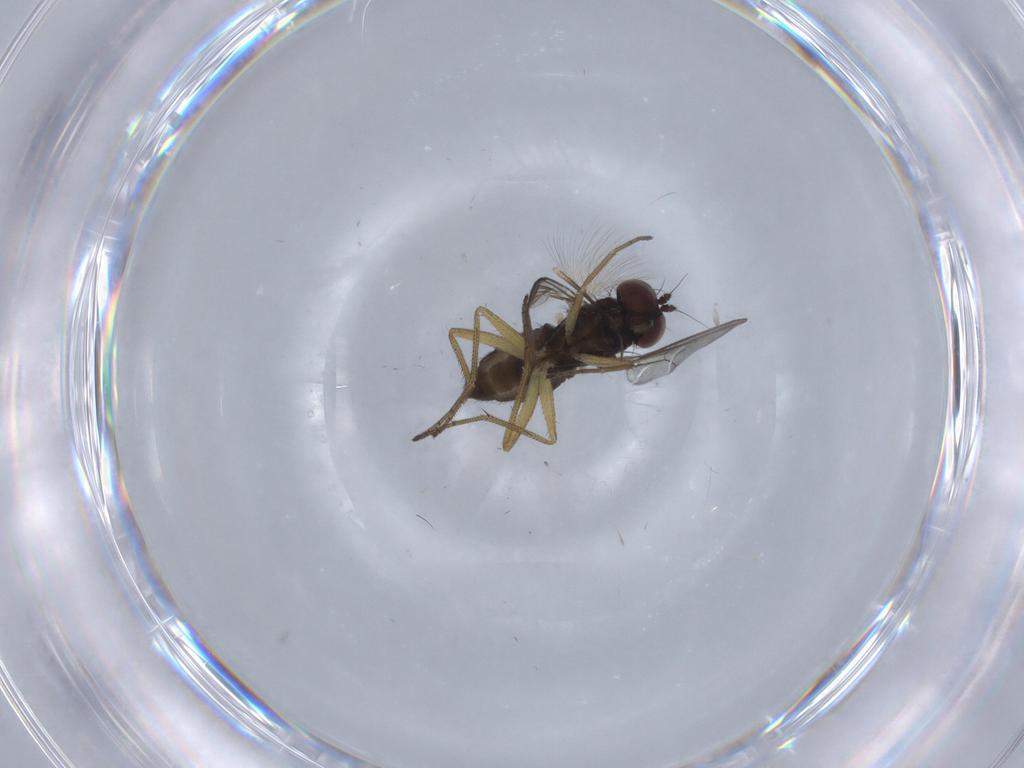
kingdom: Animalia
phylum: Arthropoda
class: Insecta
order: Diptera
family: Dolichopodidae
